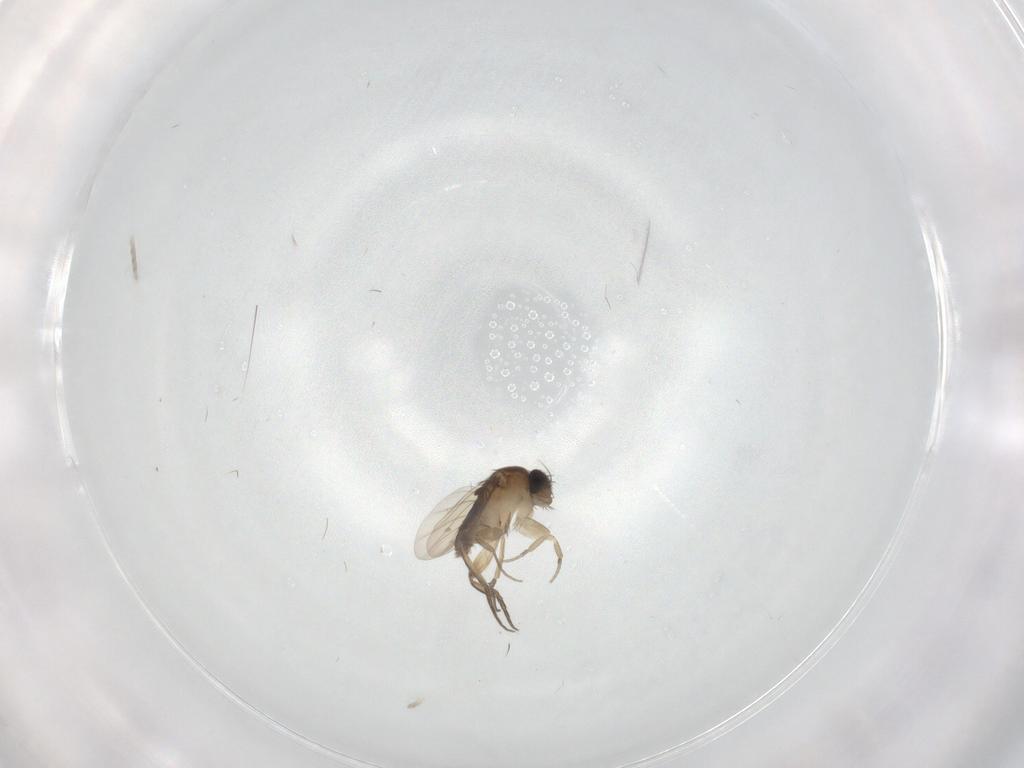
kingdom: Animalia
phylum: Arthropoda
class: Insecta
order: Diptera
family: Phoridae
